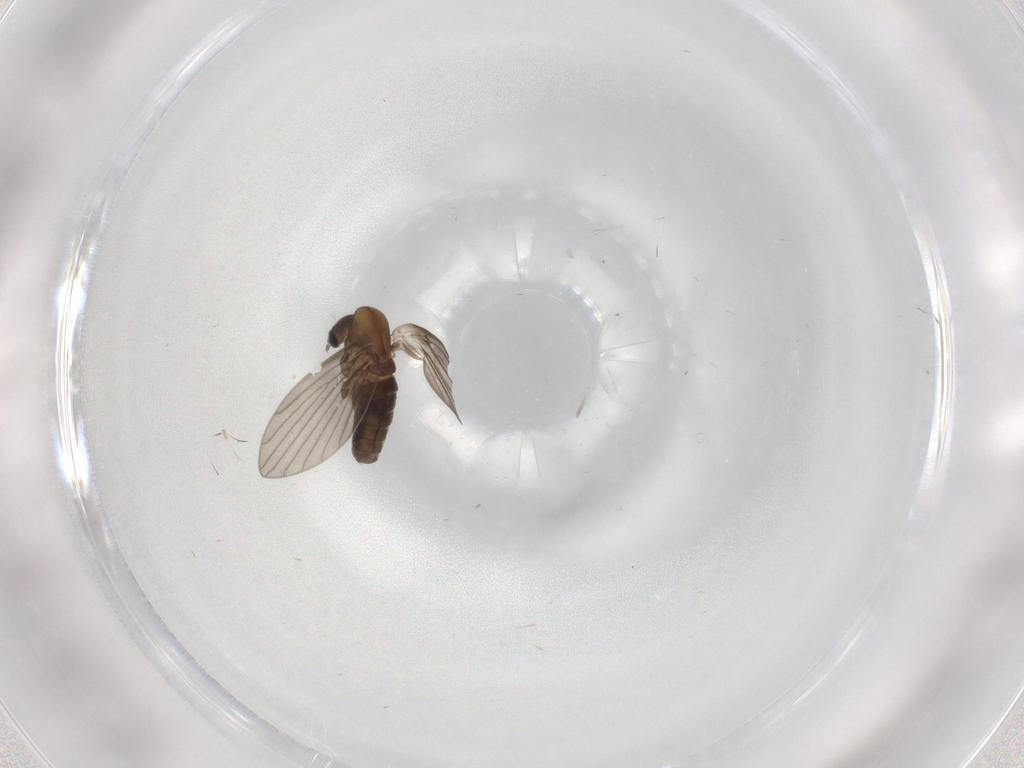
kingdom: Animalia
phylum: Arthropoda
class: Insecta
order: Diptera
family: Psychodidae
